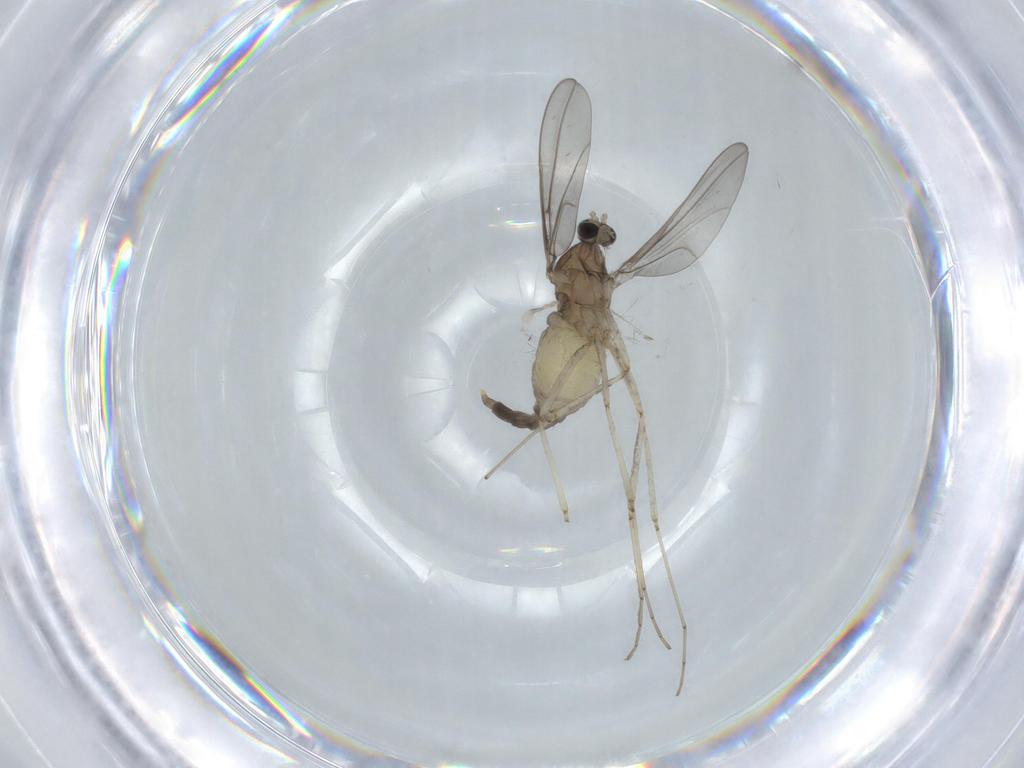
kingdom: Animalia
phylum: Arthropoda
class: Insecta
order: Diptera
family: Cecidomyiidae
